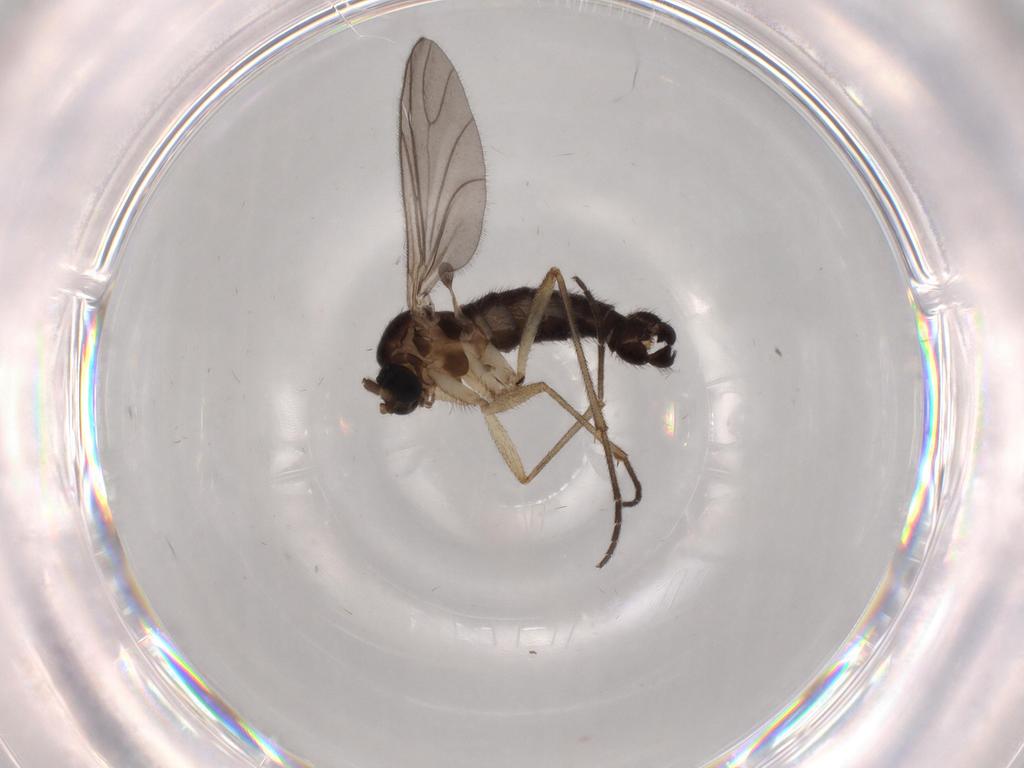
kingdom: Animalia
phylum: Arthropoda
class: Insecta
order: Diptera
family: Sciaridae
